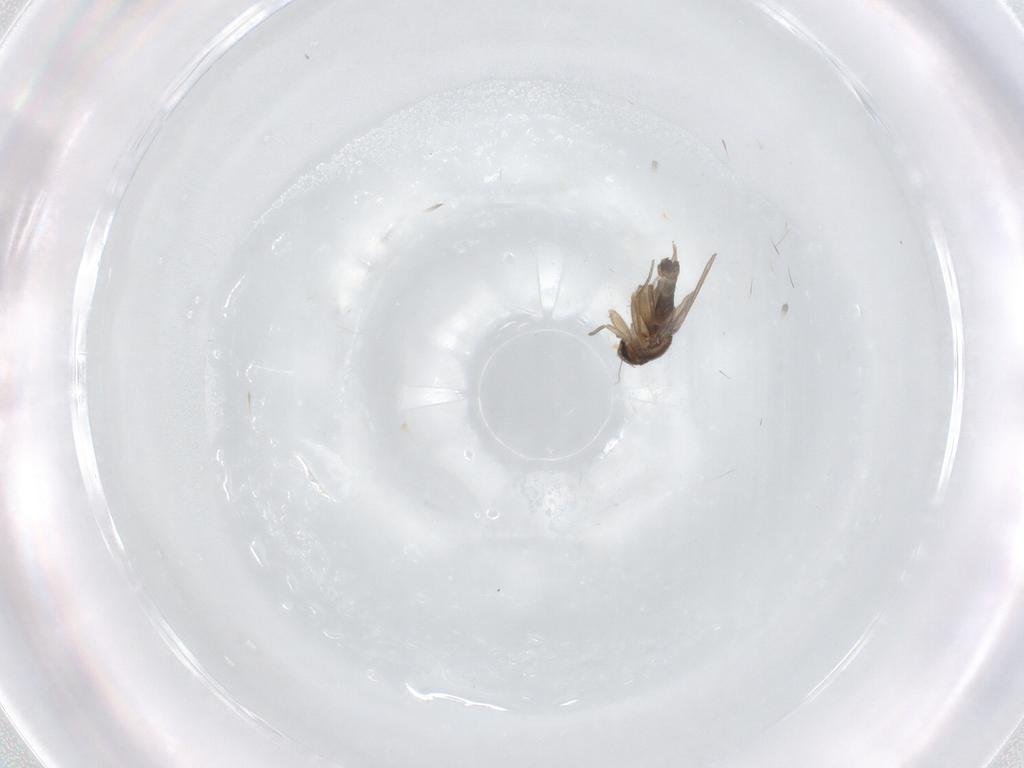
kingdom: Animalia
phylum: Arthropoda
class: Insecta
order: Diptera
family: Phoridae
